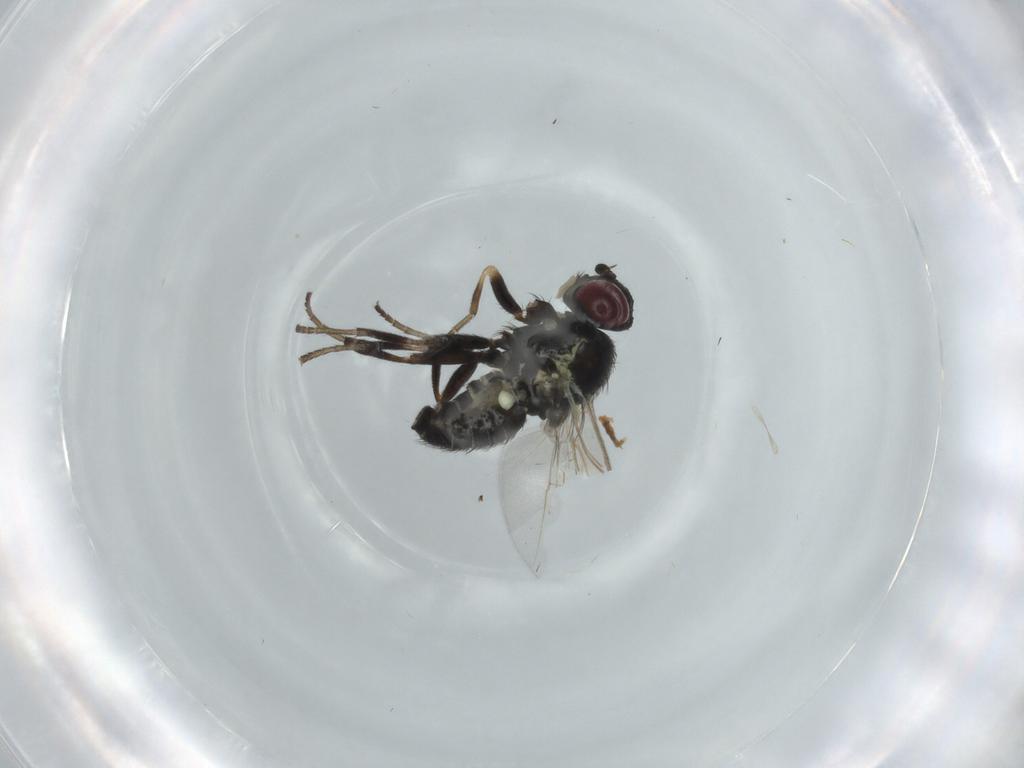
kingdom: Animalia
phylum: Arthropoda
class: Insecta
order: Diptera
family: Agromyzidae
